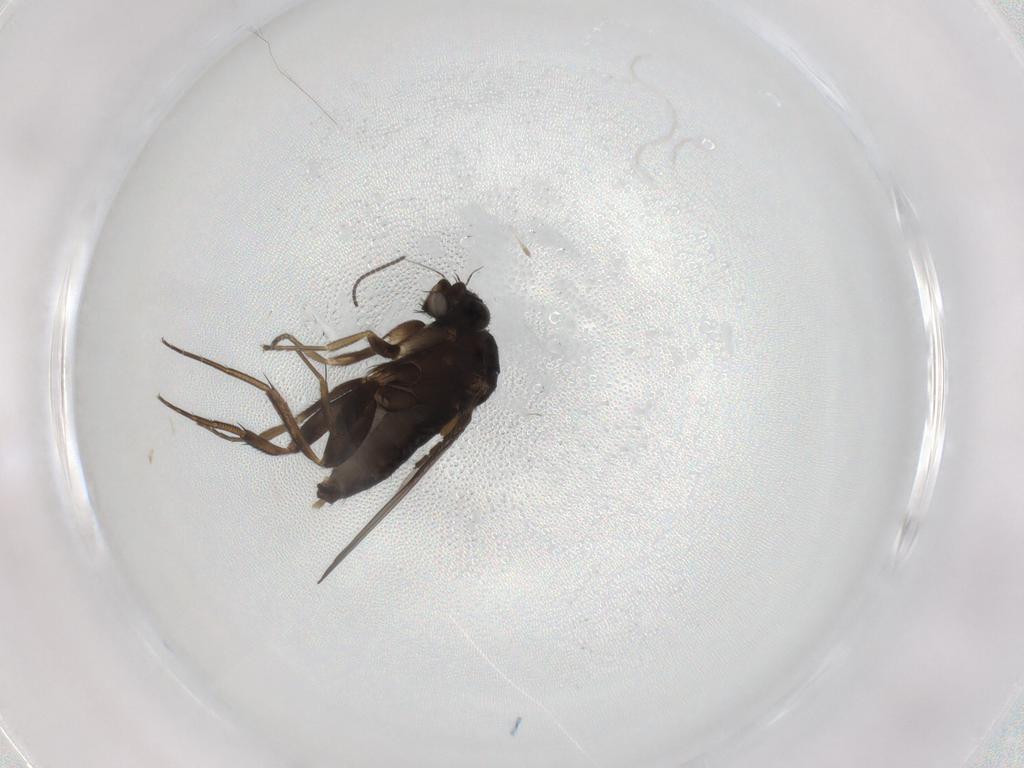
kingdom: Animalia
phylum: Arthropoda
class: Insecta
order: Diptera
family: Phoridae
